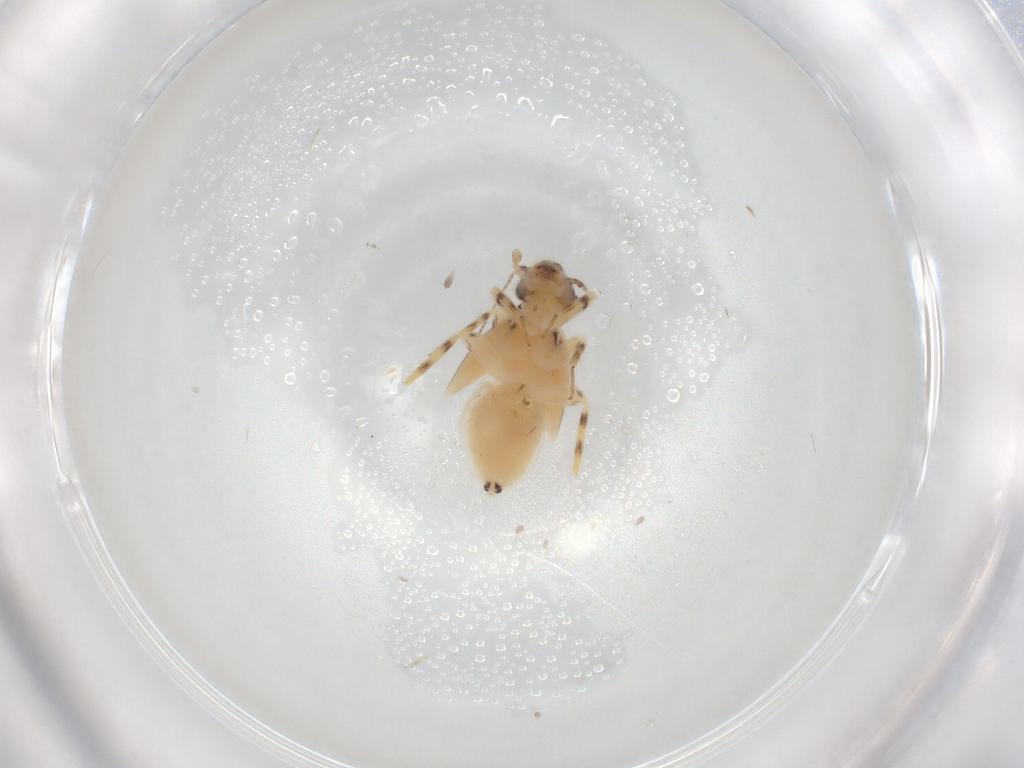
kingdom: Animalia
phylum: Arthropoda
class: Insecta
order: Psocodea
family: Lepidopsocidae
